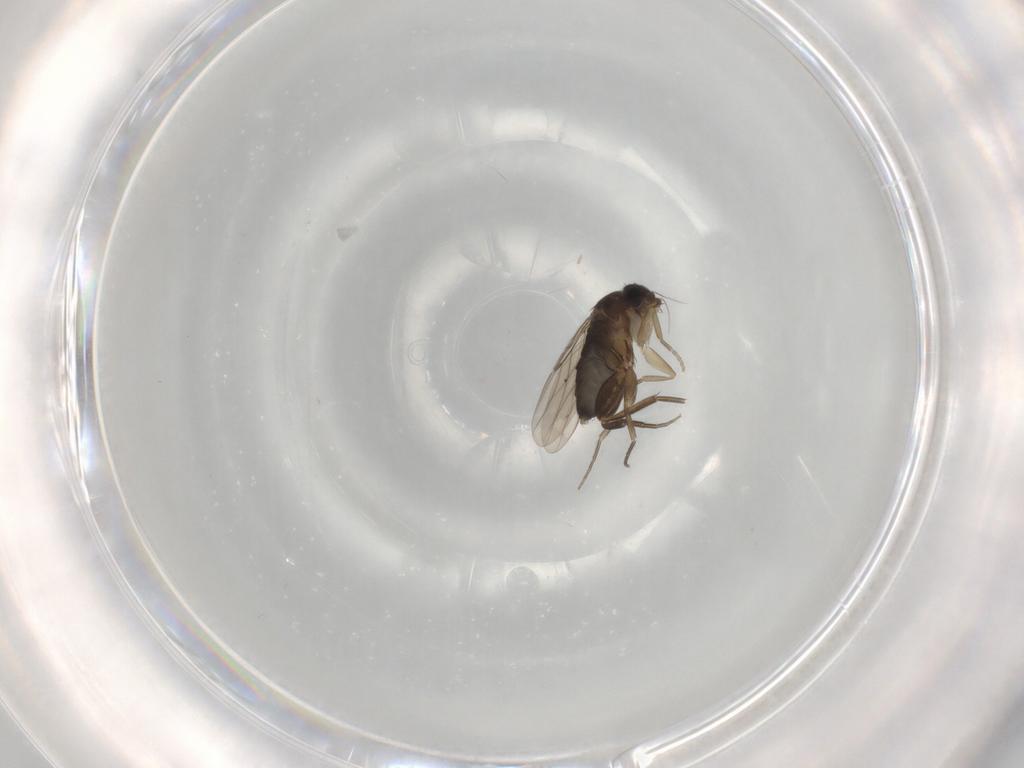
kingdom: Animalia
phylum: Arthropoda
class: Insecta
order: Diptera
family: Phoridae
